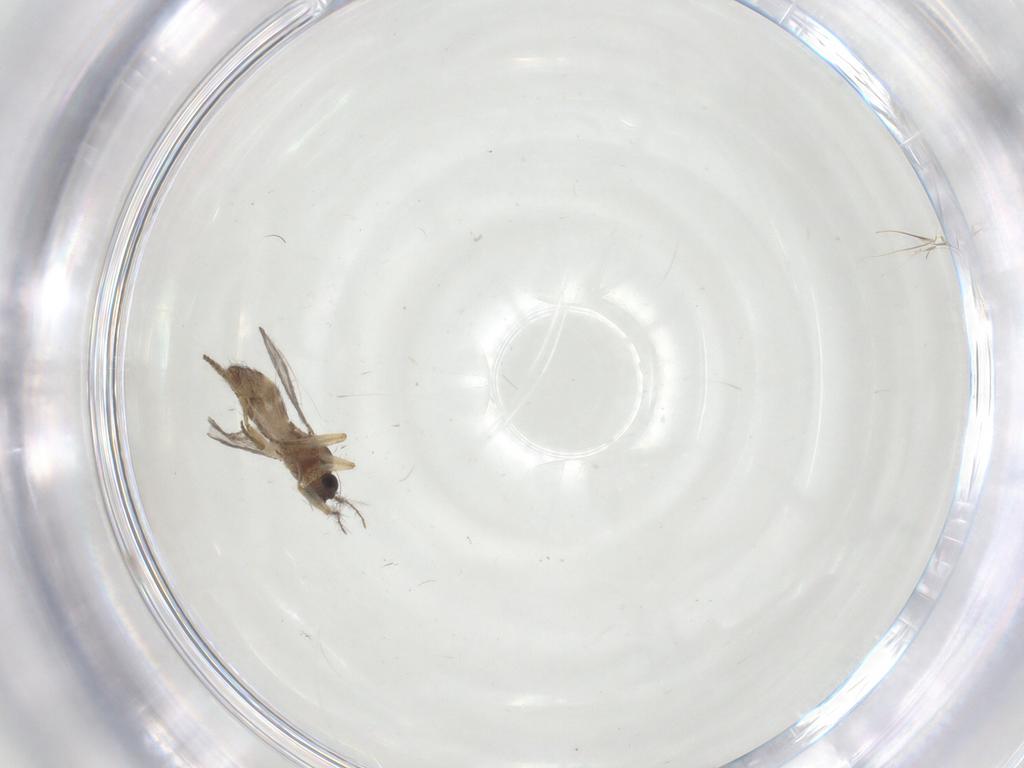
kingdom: Animalia
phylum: Arthropoda
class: Insecta
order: Diptera
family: Ceratopogonidae
